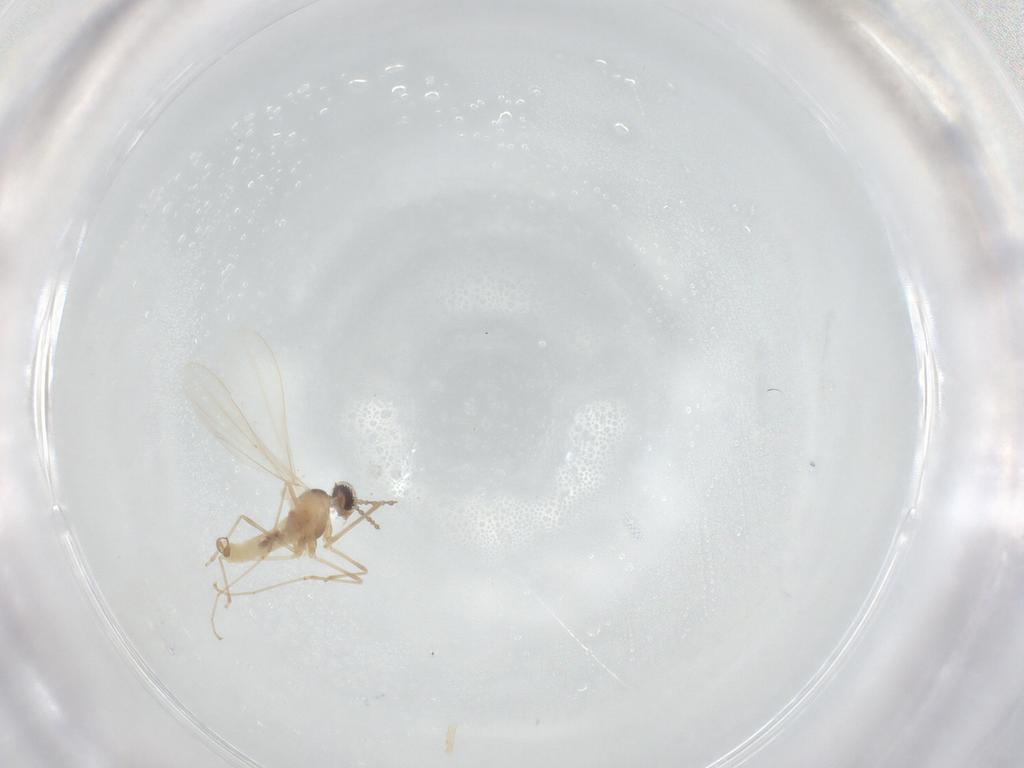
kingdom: Animalia
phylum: Arthropoda
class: Insecta
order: Diptera
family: Cecidomyiidae
